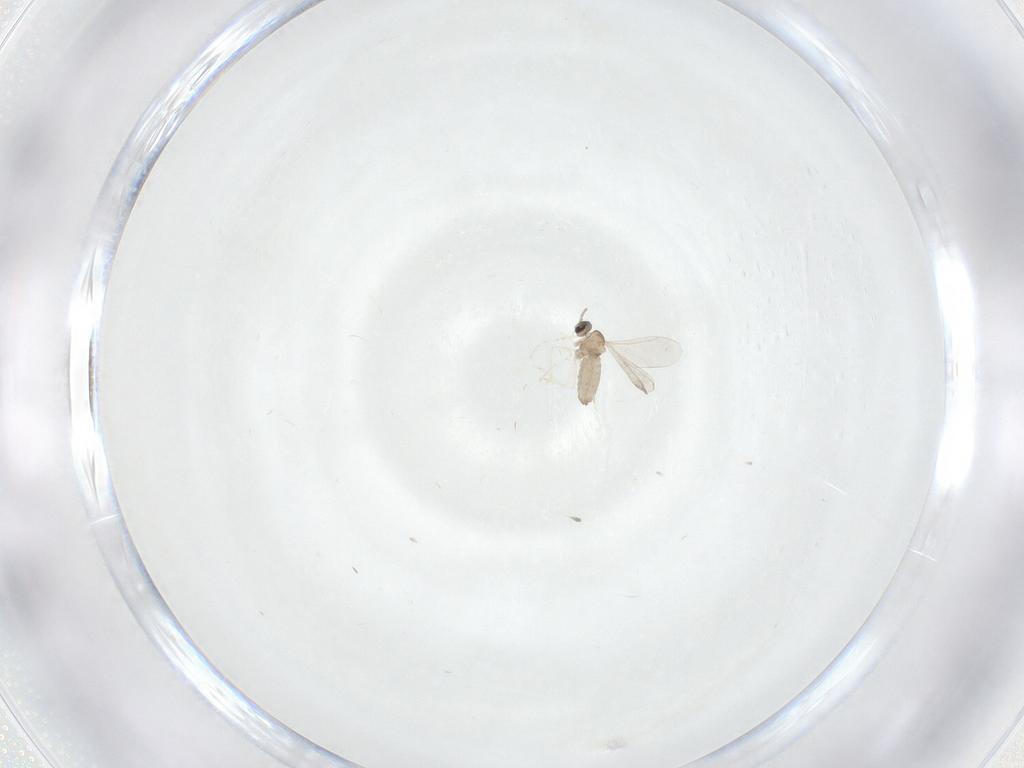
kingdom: Animalia
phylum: Arthropoda
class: Insecta
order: Diptera
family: Cecidomyiidae
